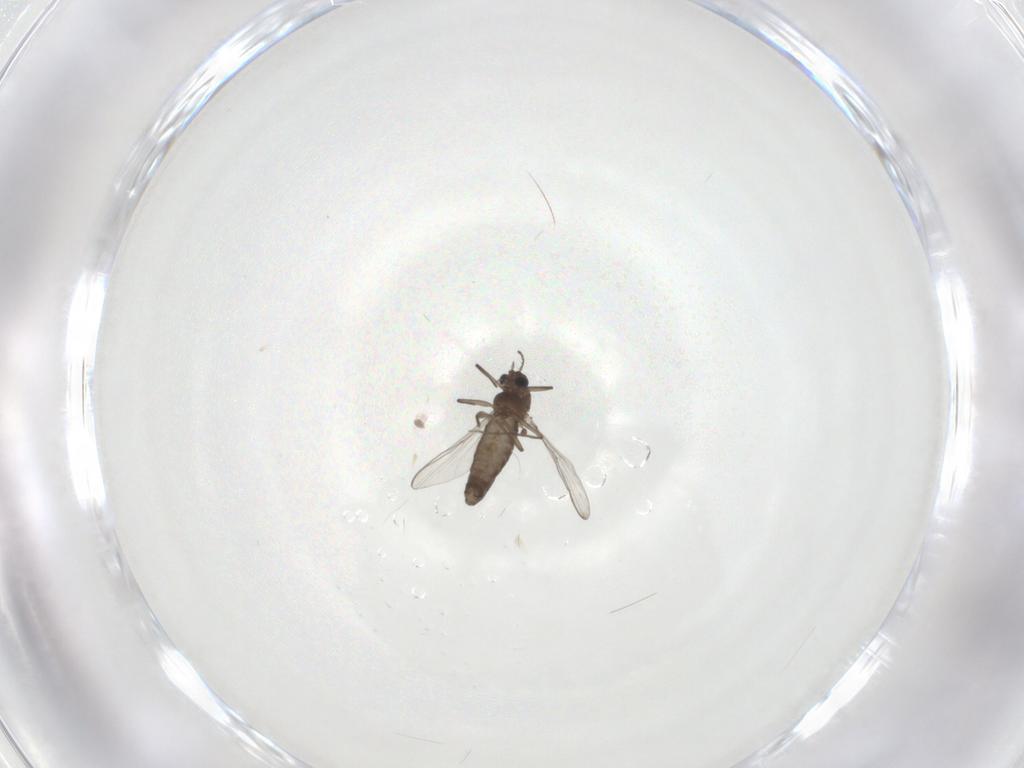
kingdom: Animalia
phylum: Arthropoda
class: Insecta
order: Diptera
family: Chironomidae
